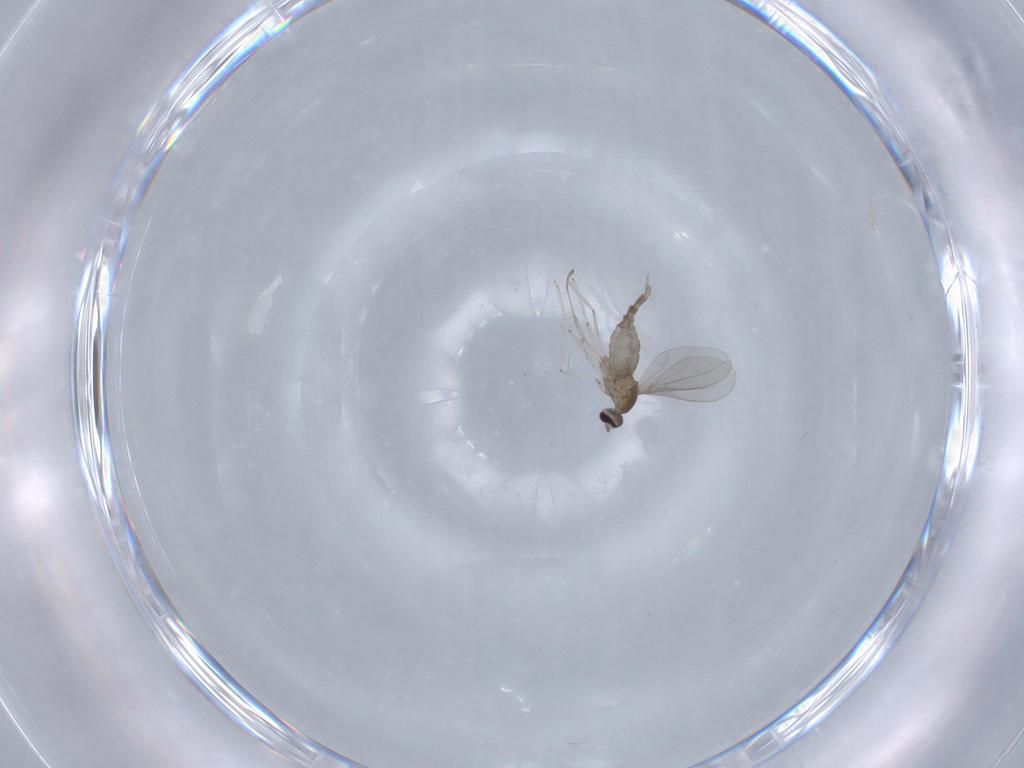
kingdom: Animalia
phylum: Arthropoda
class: Insecta
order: Diptera
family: Cecidomyiidae
